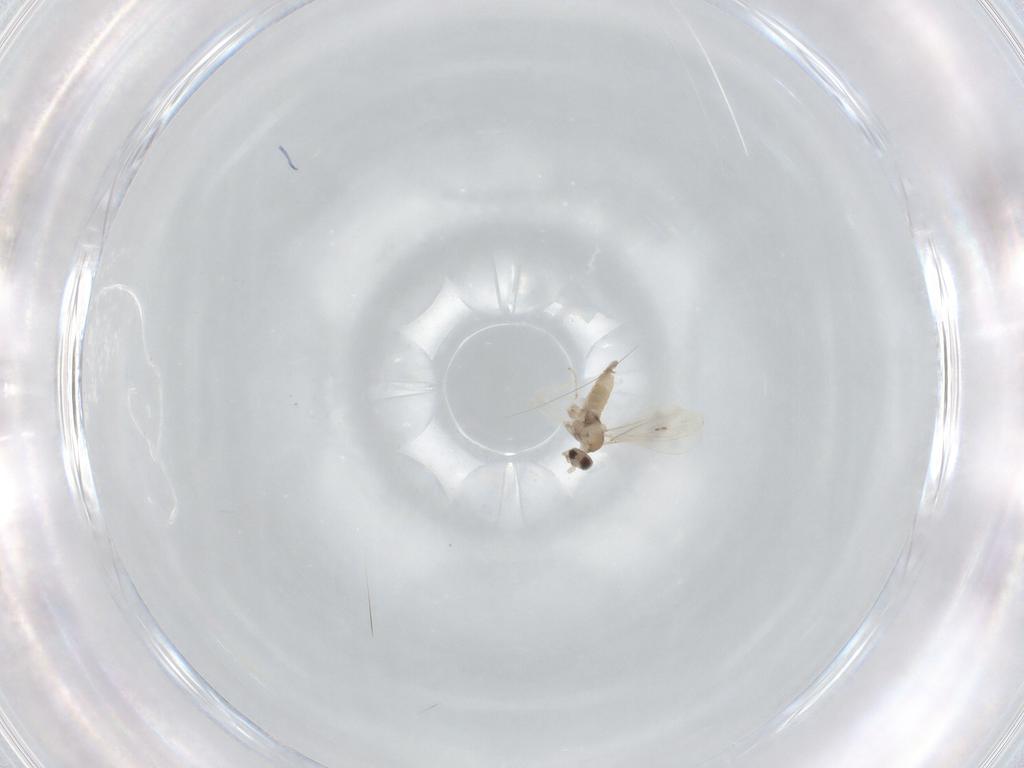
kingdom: Animalia
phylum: Arthropoda
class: Insecta
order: Diptera
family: Cecidomyiidae
